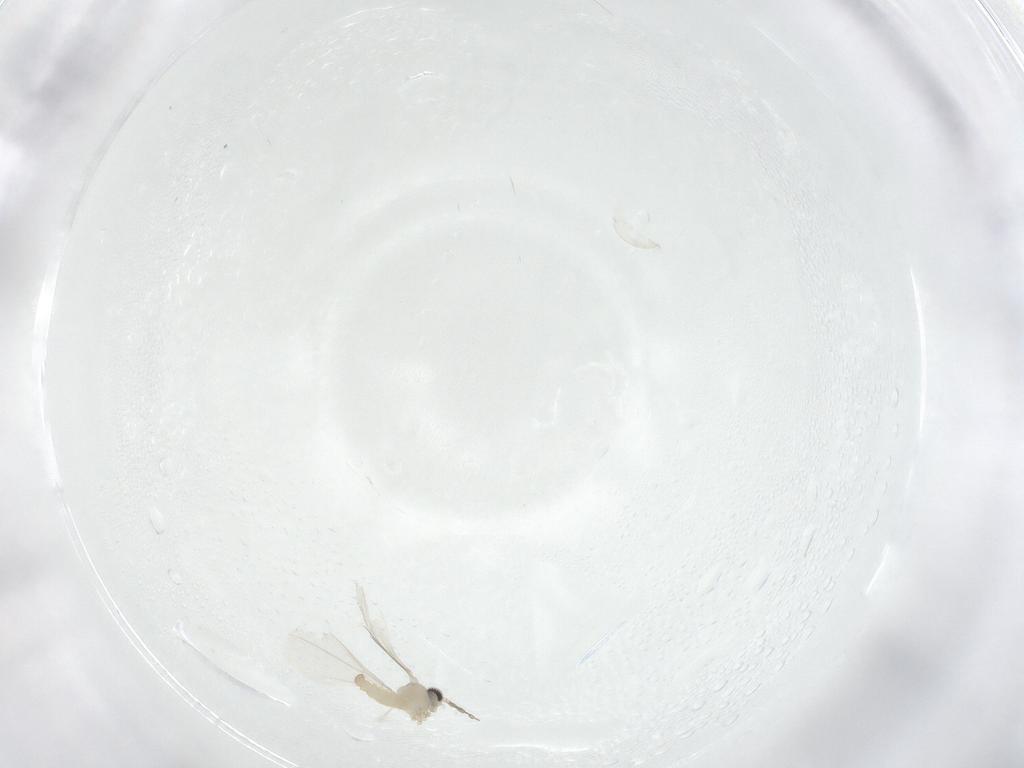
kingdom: Animalia
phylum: Arthropoda
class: Insecta
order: Diptera
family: Cecidomyiidae
